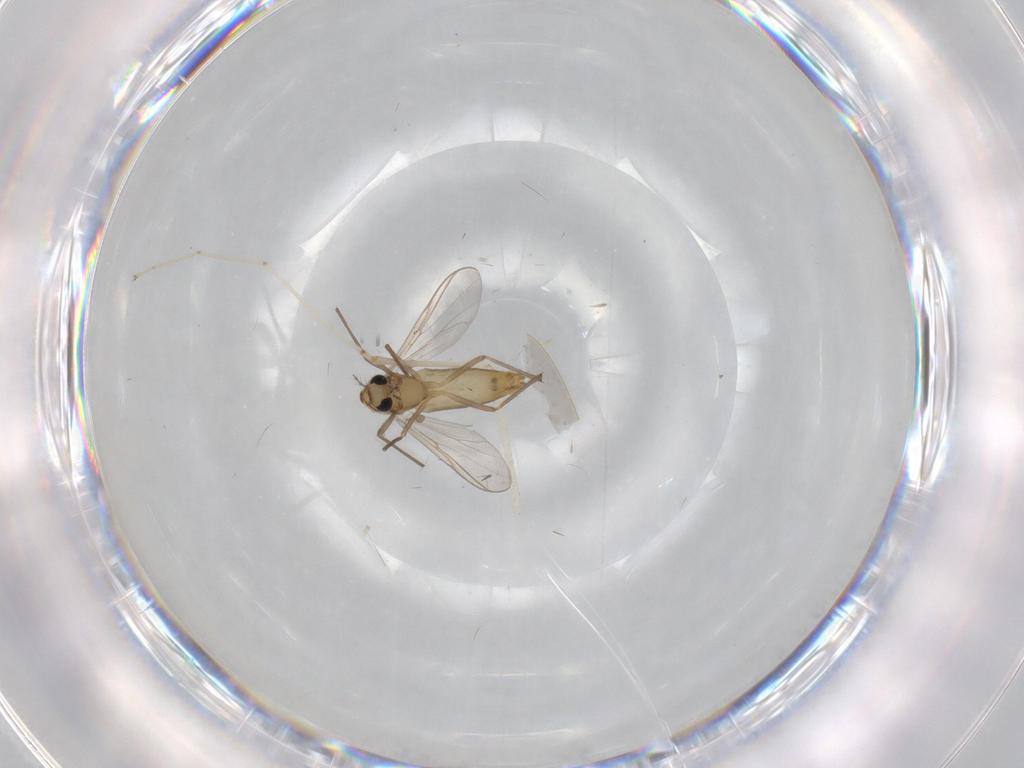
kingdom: Animalia
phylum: Arthropoda
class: Insecta
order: Diptera
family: Chironomidae
